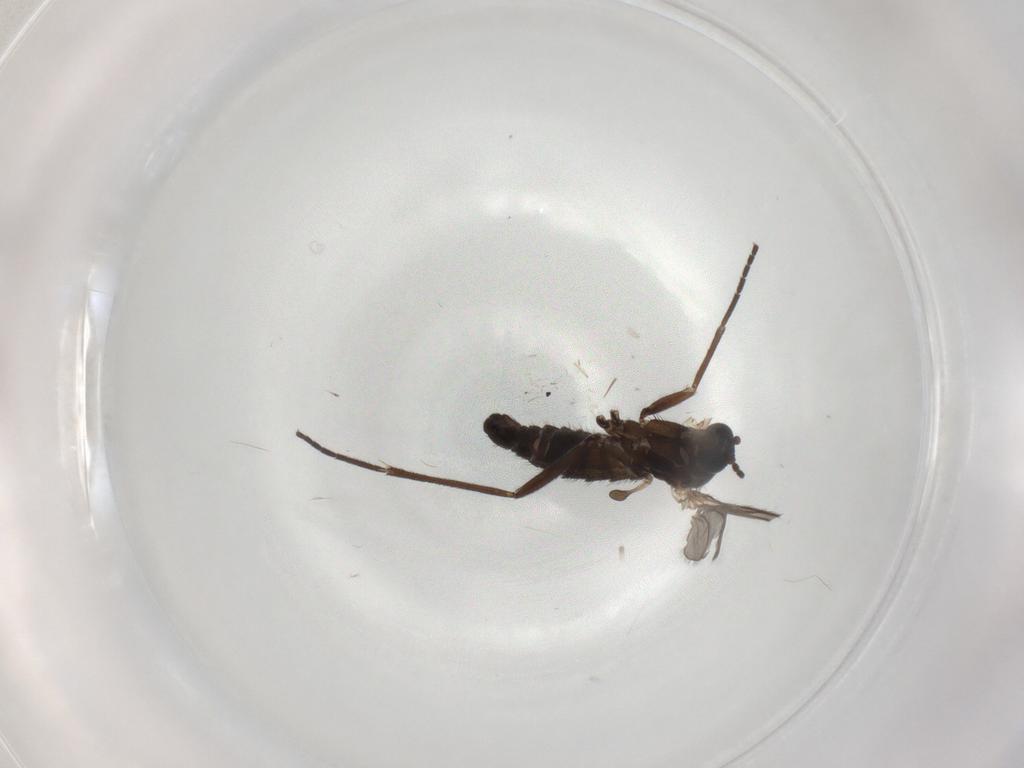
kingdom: Animalia
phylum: Arthropoda
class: Insecta
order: Diptera
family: Sciaridae
